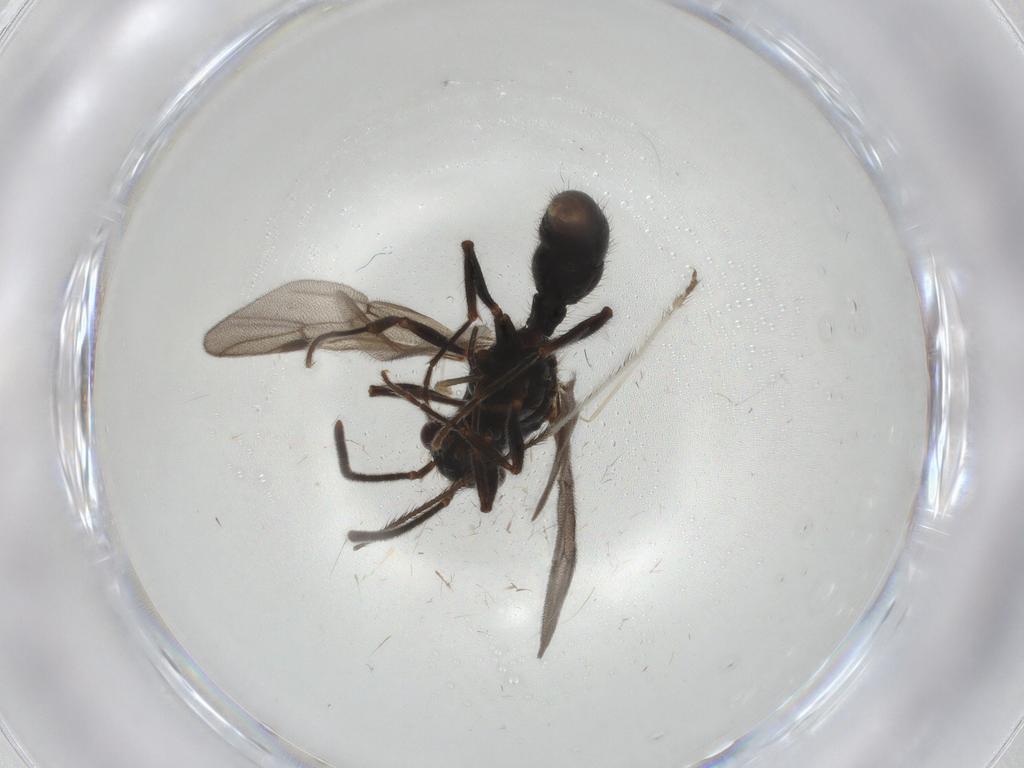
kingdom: Animalia
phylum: Arthropoda
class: Insecta
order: Hymenoptera
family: Formicidae
